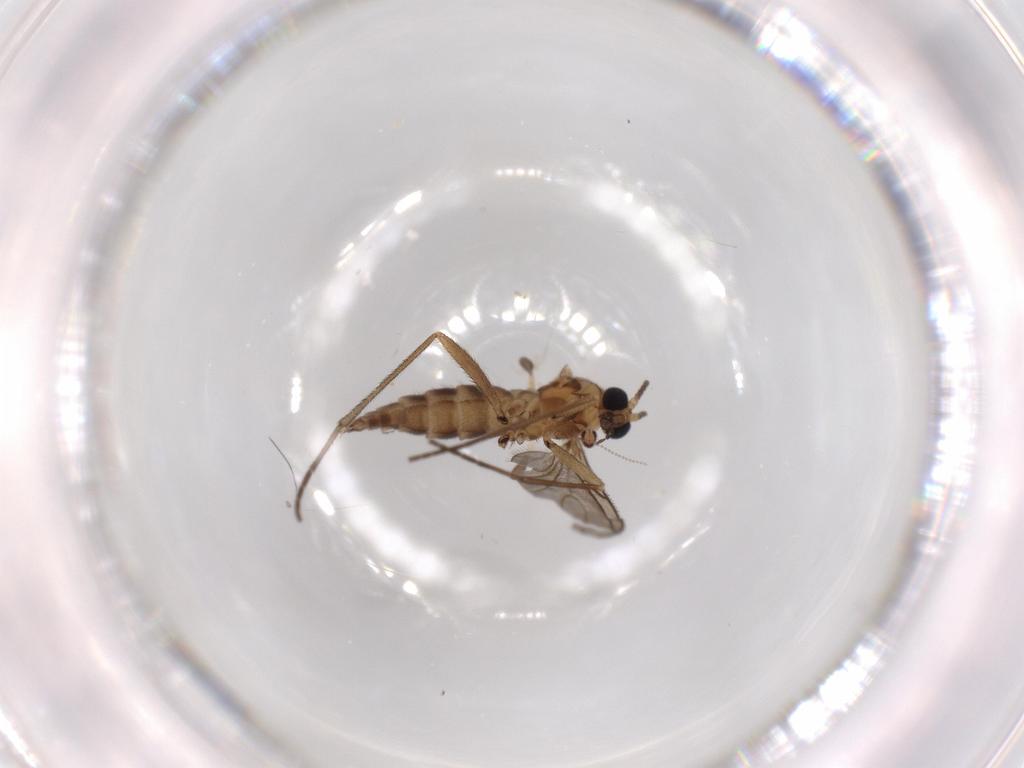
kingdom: Animalia
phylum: Arthropoda
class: Insecta
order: Diptera
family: Sciaridae
